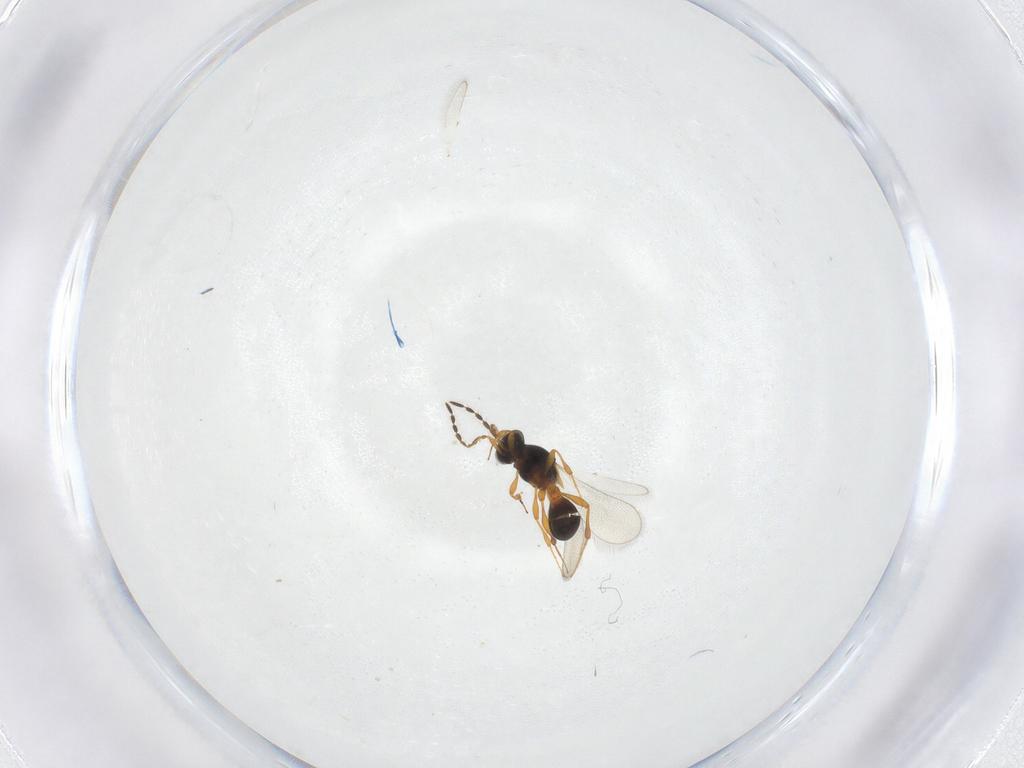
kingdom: Animalia
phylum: Arthropoda
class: Insecta
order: Hymenoptera
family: Platygastridae
